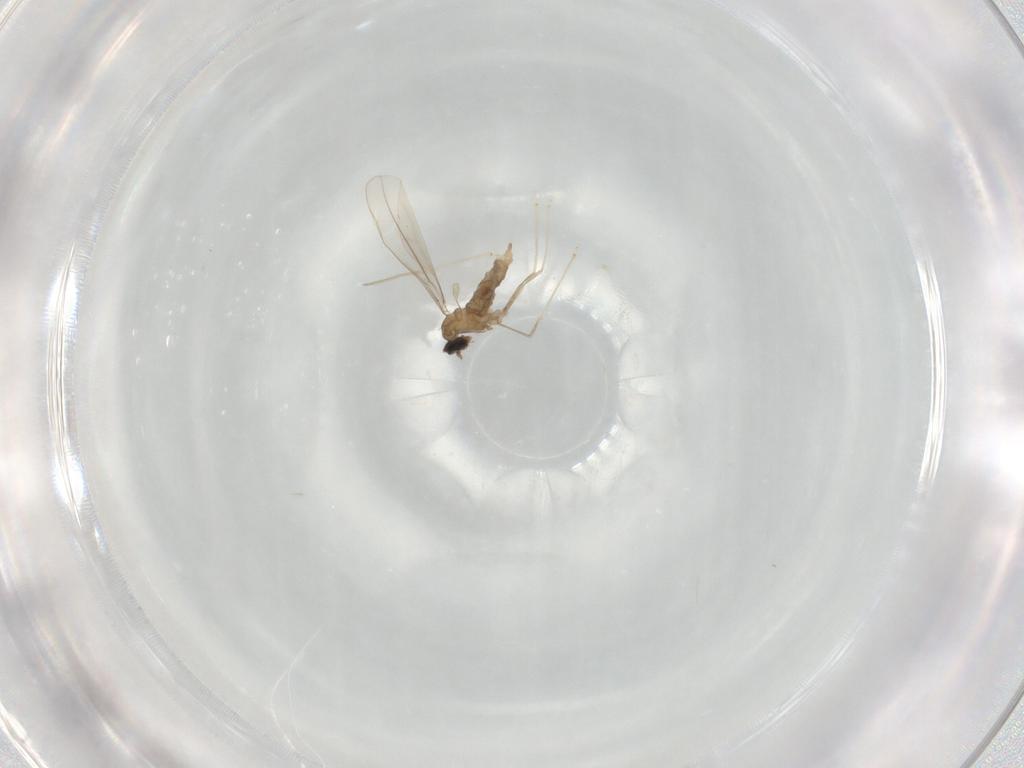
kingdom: Animalia
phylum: Arthropoda
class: Insecta
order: Diptera
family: Cecidomyiidae
